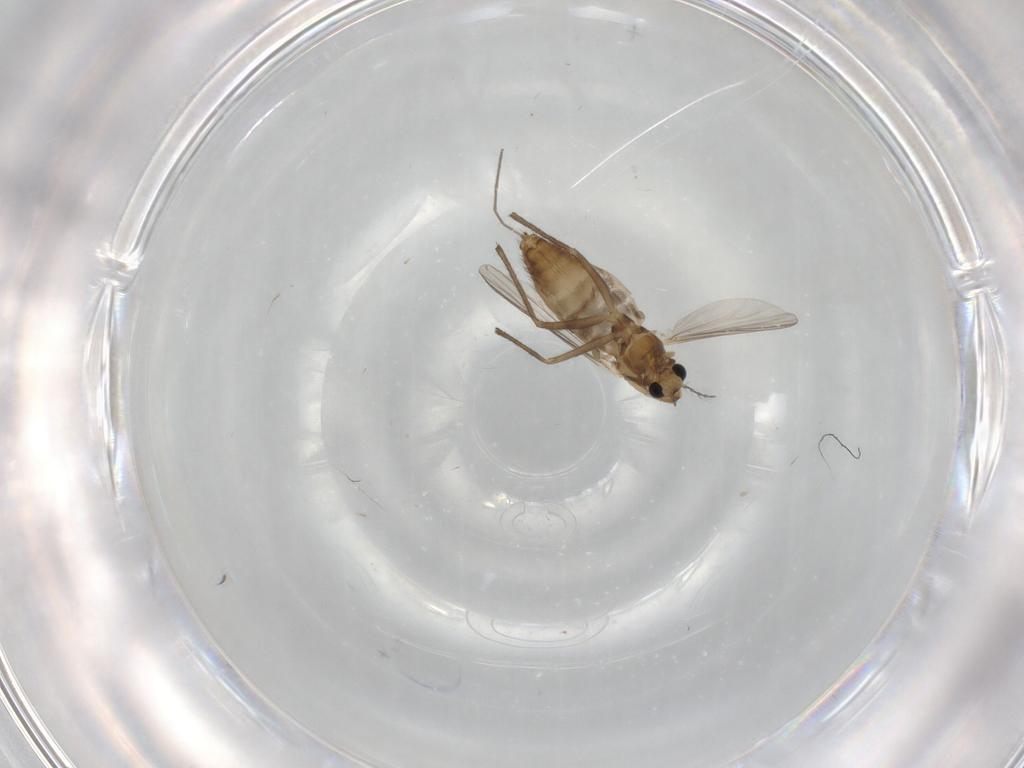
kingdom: Animalia
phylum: Arthropoda
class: Insecta
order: Diptera
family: Chironomidae
